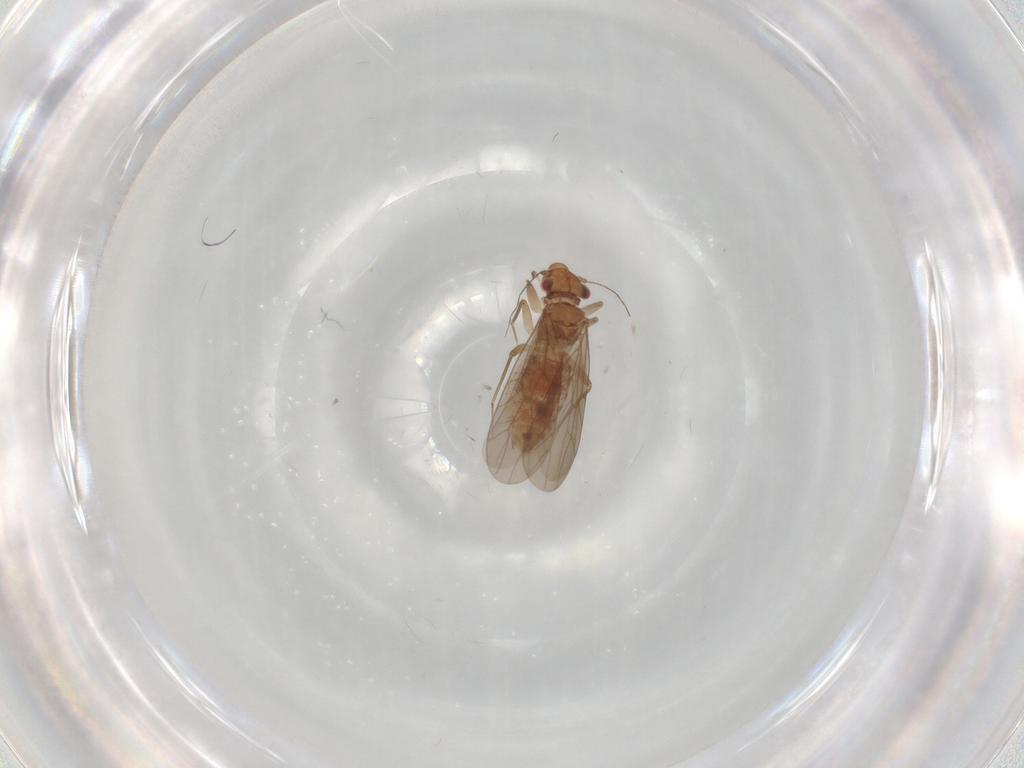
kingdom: Animalia
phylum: Arthropoda
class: Insecta
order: Psocodea
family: Lepidopsocidae
